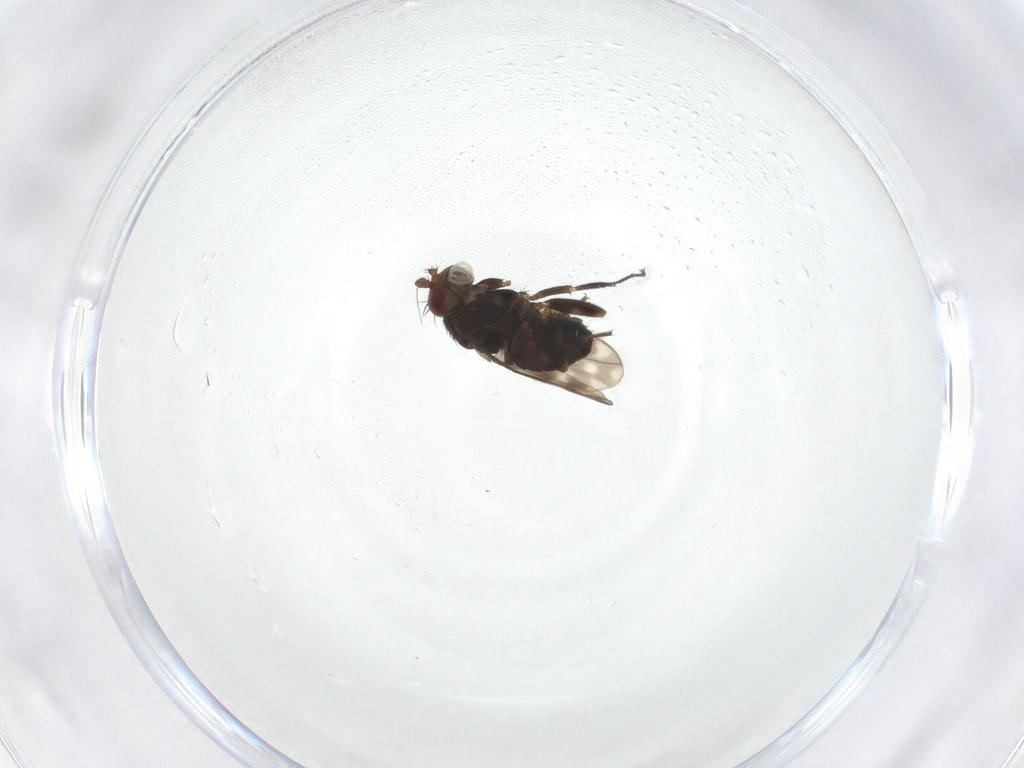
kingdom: Animalia
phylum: Arthropoda
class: Insecta
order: Diptera
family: Sphaeroceridae
